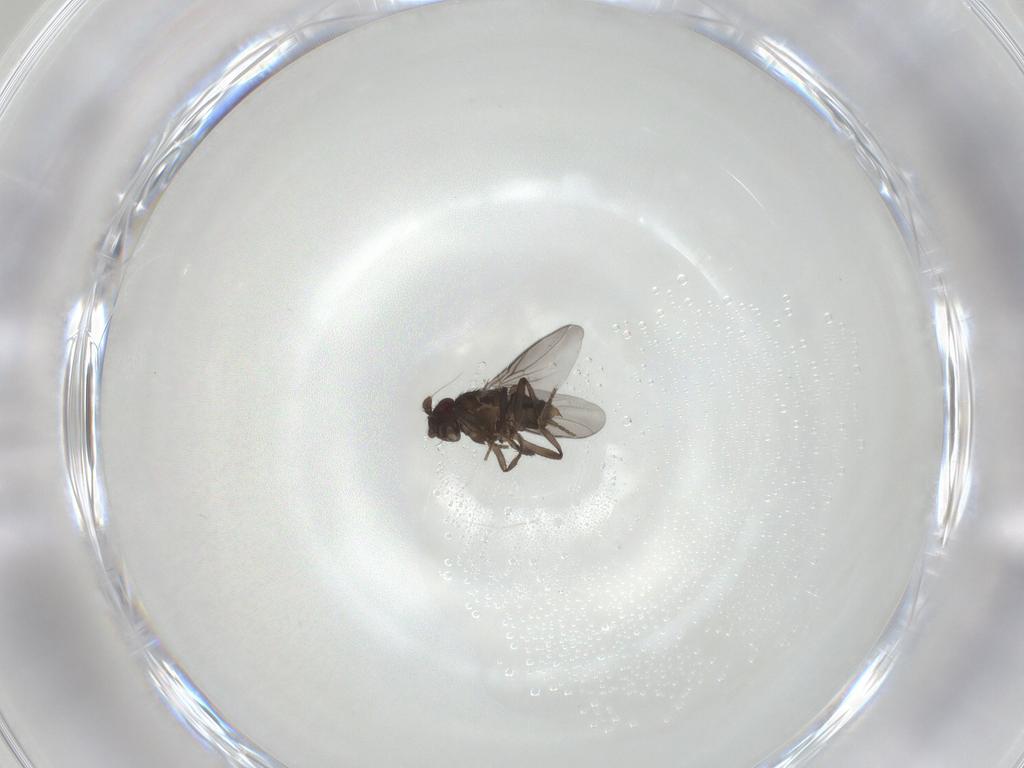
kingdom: Animalia
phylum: Arthropoda
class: Insecta
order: Diptera
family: Sphaeroceridae
